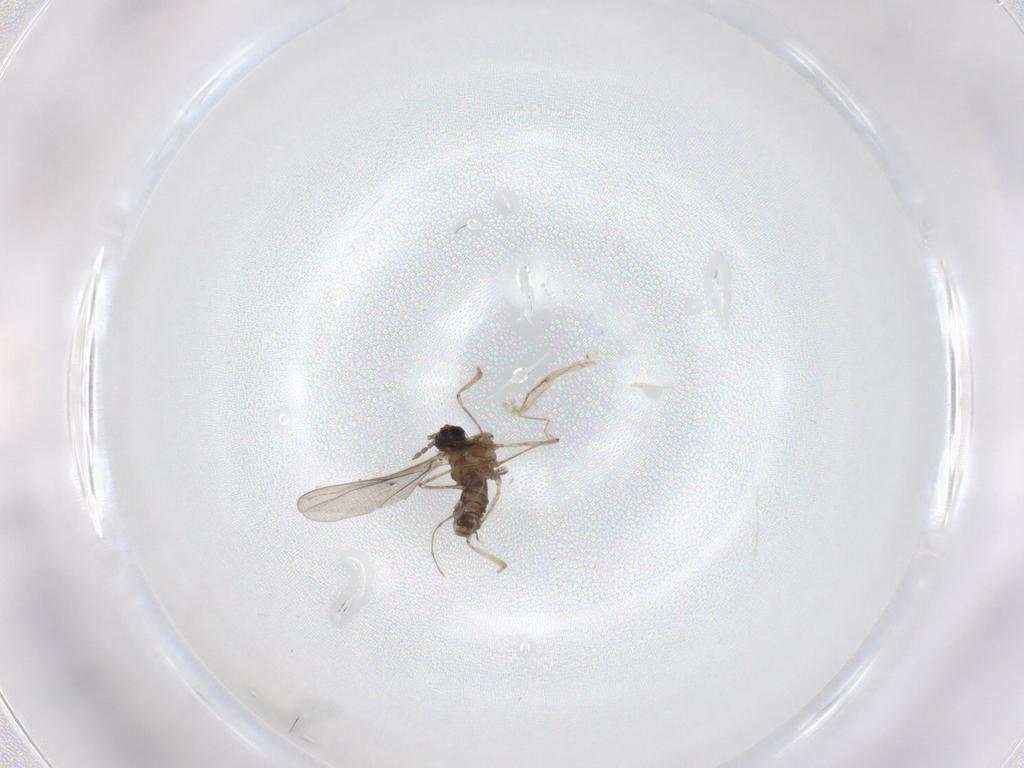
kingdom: Animalia
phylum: Arthropoda
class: Insecta
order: Diptera
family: Cecidomyiidae
